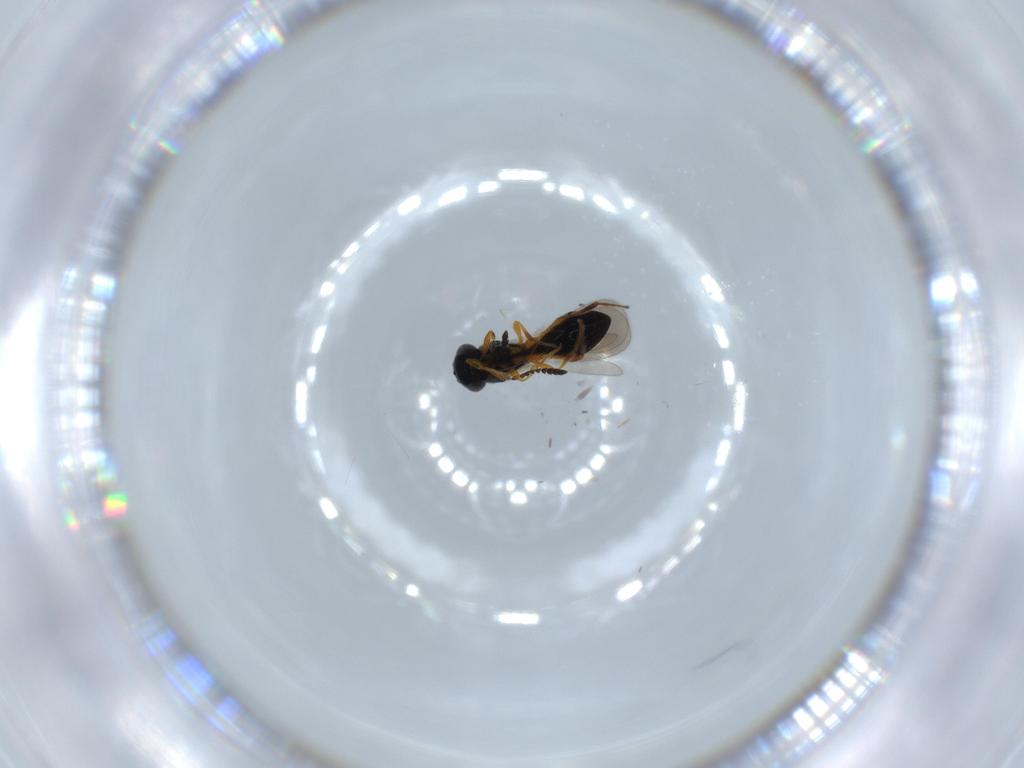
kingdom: Animalia
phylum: Arthropoda
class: Insecta
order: Hymenoptera
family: Platygastridae
